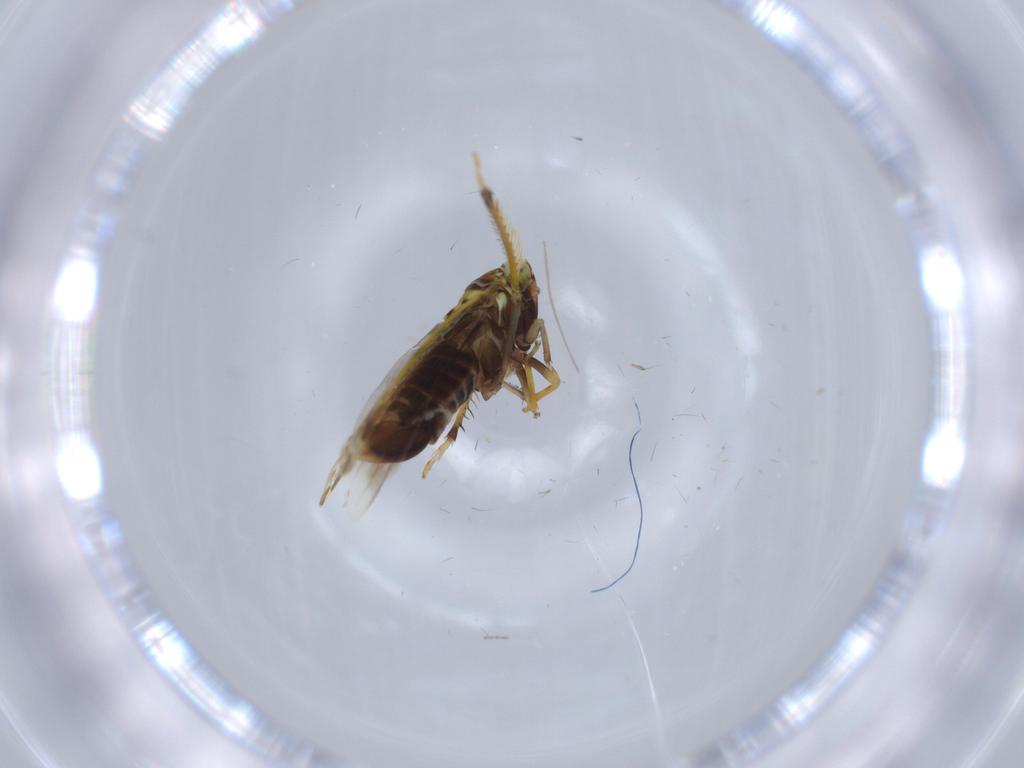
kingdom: Animalia
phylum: Arthropoda
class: Insecta
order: Hemiptera
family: Cicadellidae
